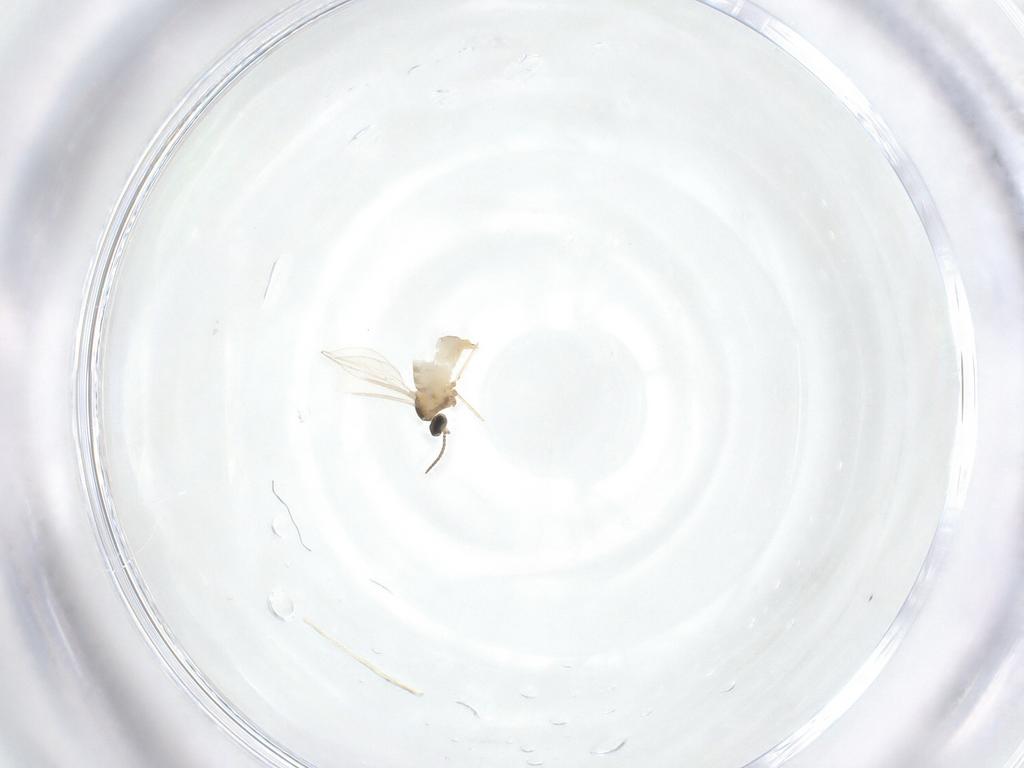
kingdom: Animalia
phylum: Arthropoda
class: Insecta
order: Diptera
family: Cecidomyiidae
